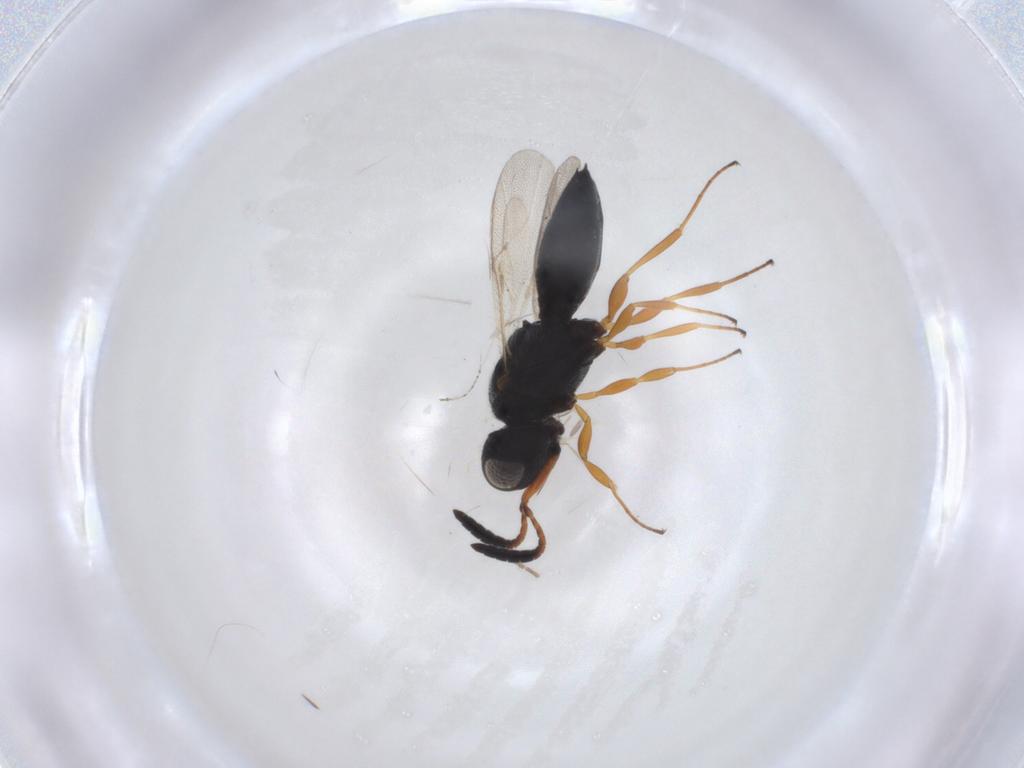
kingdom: Animalia
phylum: Arthropoda
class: Insecta
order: Hymenoptera
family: Scelionidae
